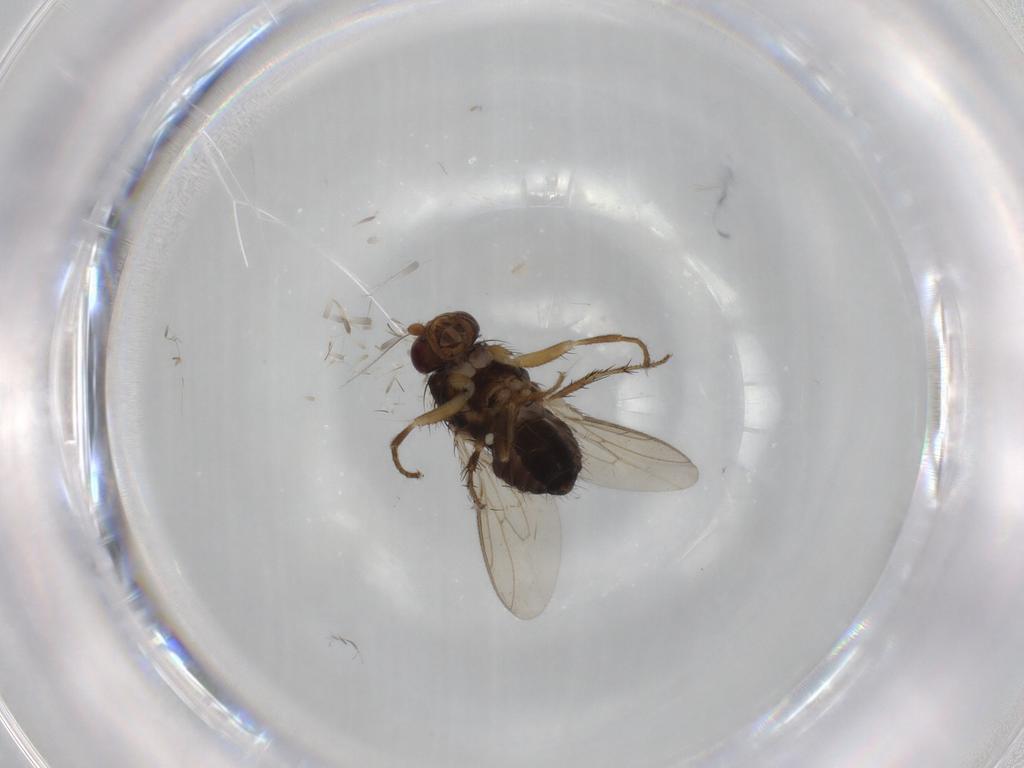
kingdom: Animalia
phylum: Arthropoda
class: Insecta
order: Diptera
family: Sphaeroceridae
